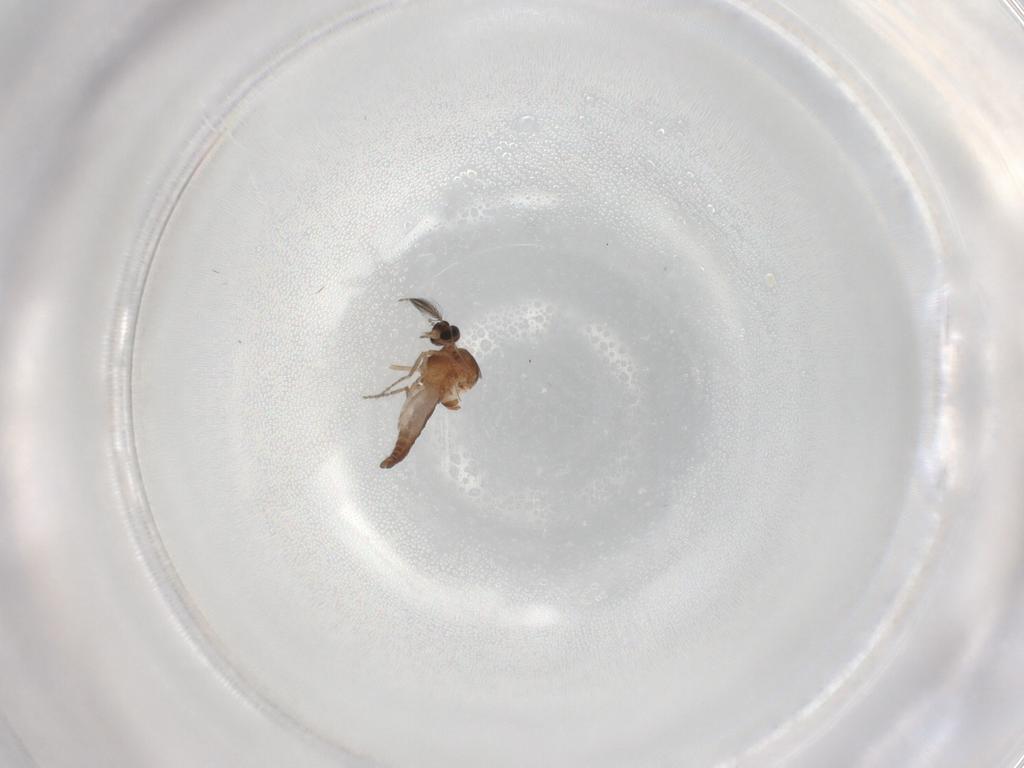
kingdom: Animalia
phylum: Arthropoda
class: Insecta
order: Diptera
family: Ceratopogonidae
